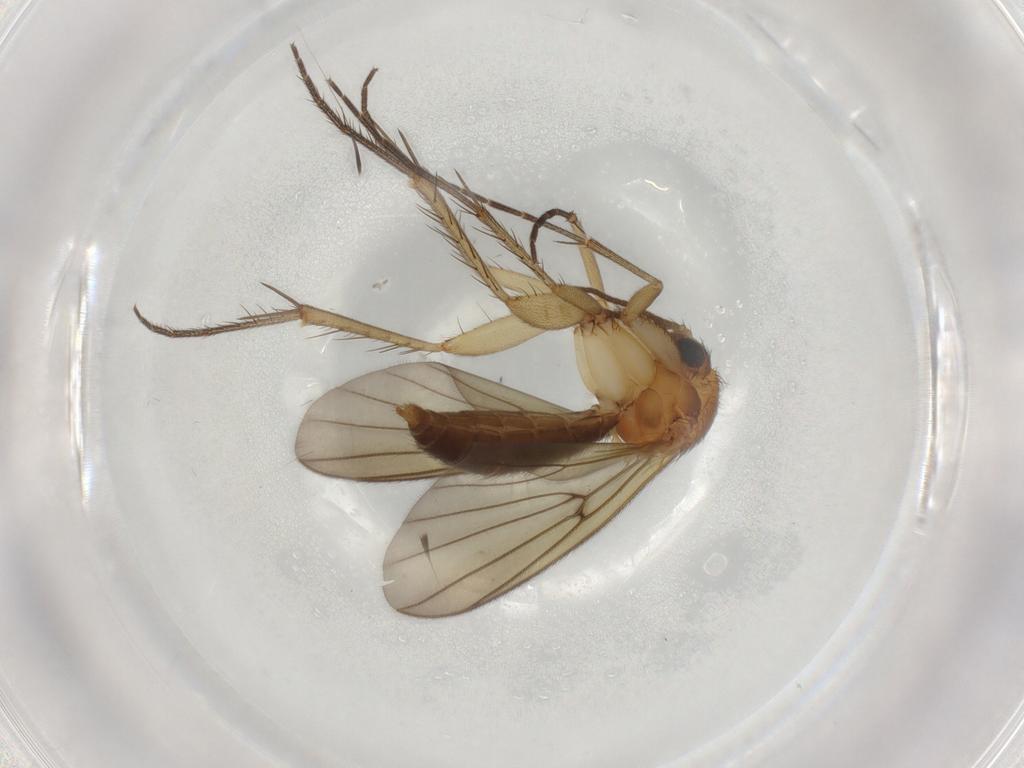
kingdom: Animalia
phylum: Arthropoda
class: Insecta
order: Diptera
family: Mycetophilidae
